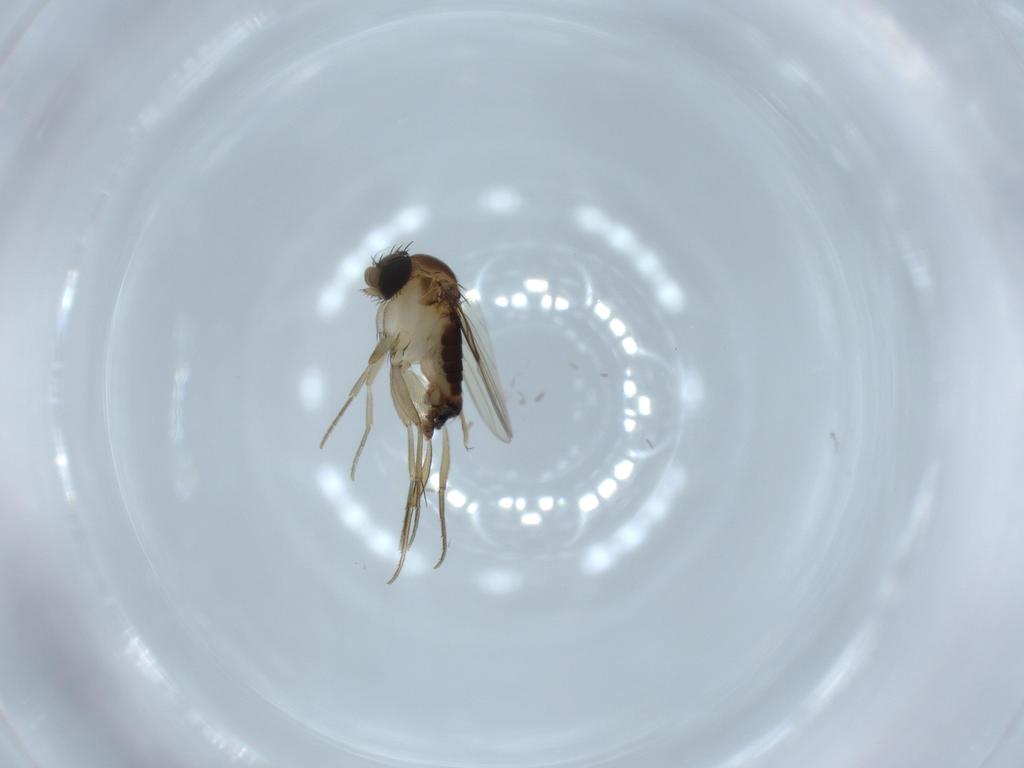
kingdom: Animalia
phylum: Arthropoda
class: Insecta
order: Diptera
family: Phoridae
